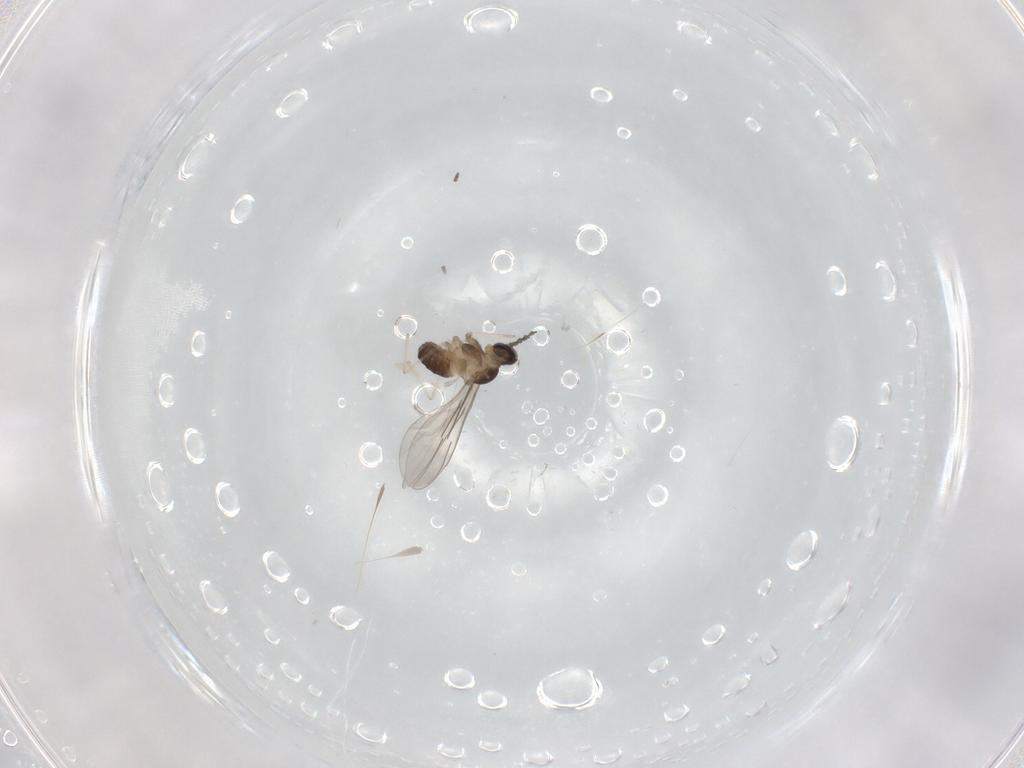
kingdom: Animalia
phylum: Arthropoda
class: Insecta
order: Diptera
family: Cecidomyiidae
